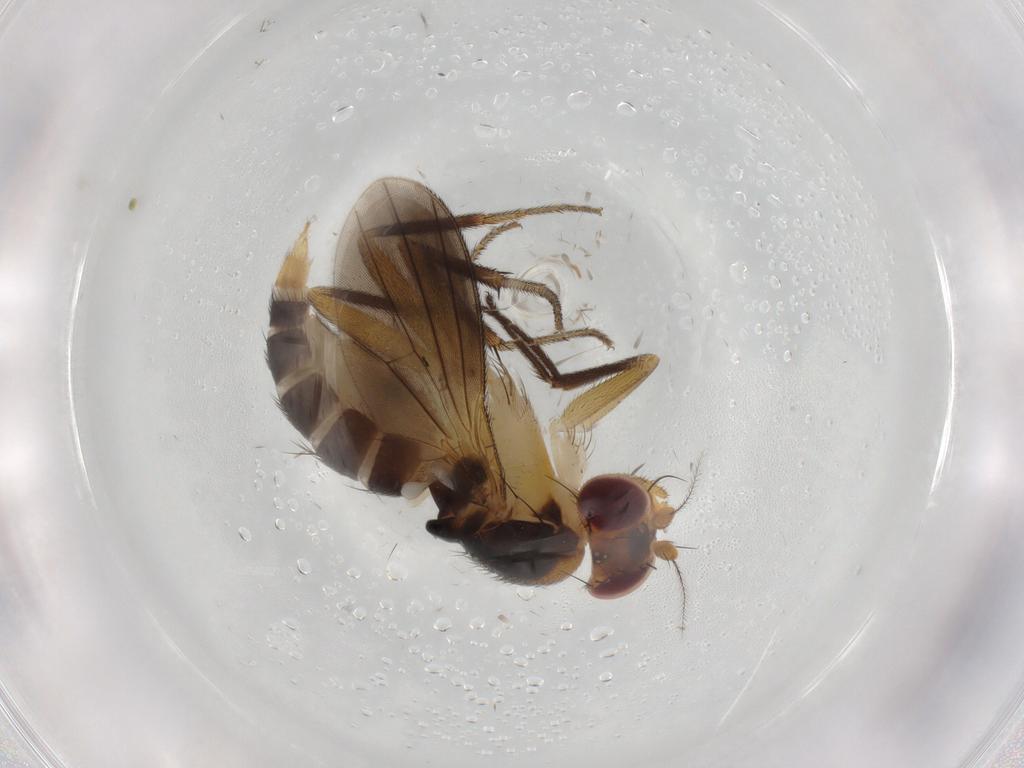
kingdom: Animalia
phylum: Arthropoda
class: Insecta
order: Diptera
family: Clusiidae
